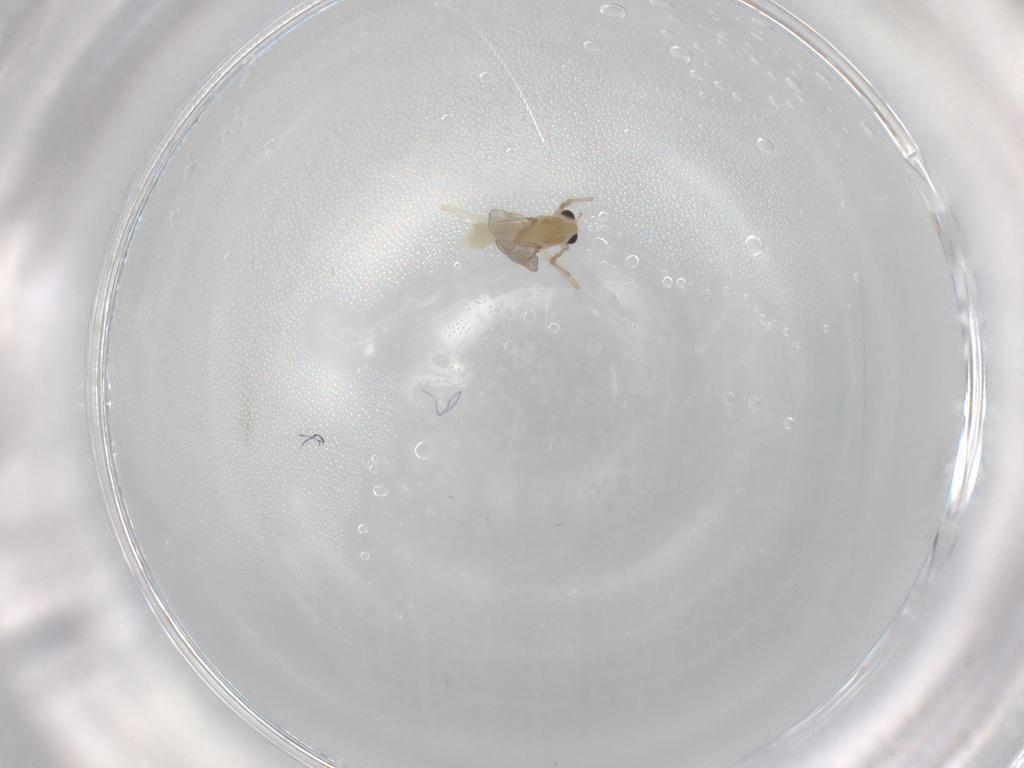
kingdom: Animalia
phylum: Arthropoda
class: Insecta
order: Diptera
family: Chironomidae
